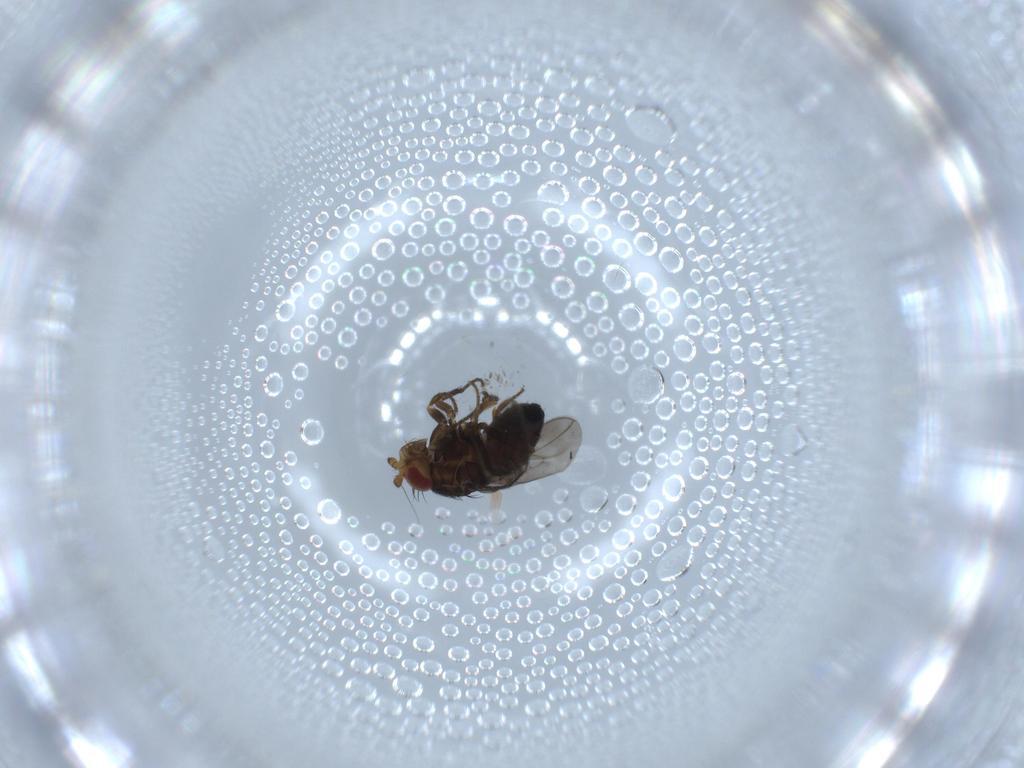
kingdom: Animalia
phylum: Arthropoda
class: Insecta
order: Diptera
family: Sphaeroceridae
